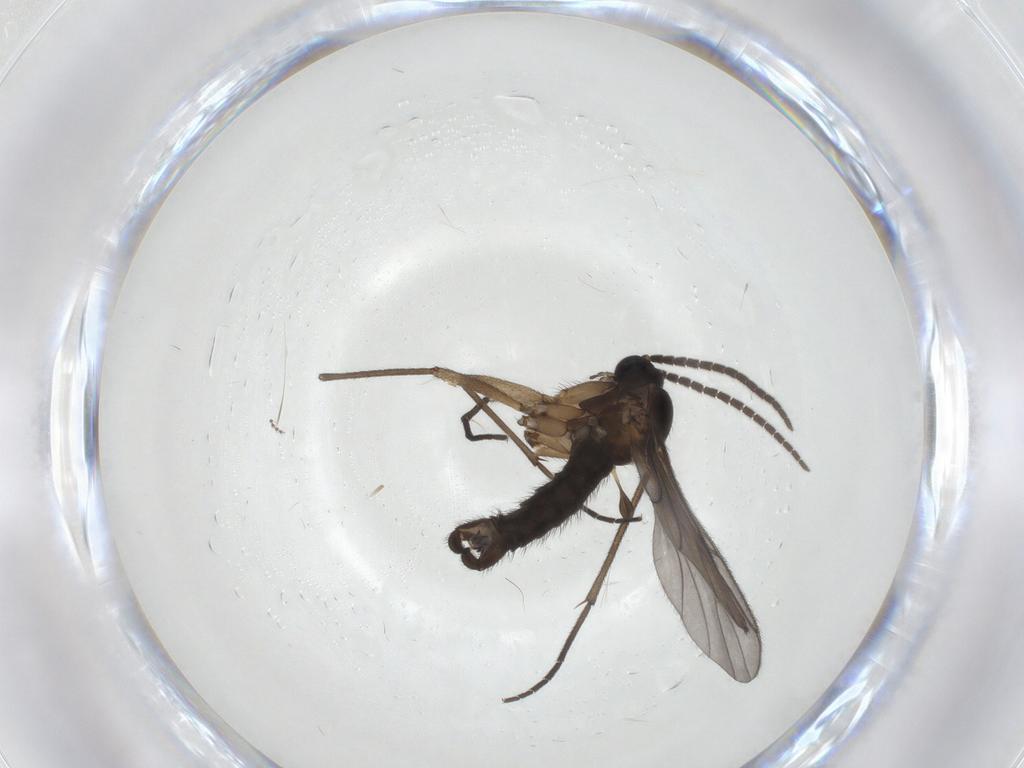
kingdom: Animalia
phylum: Arthropoda
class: Insecta
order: Diptera
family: Sciaridae
